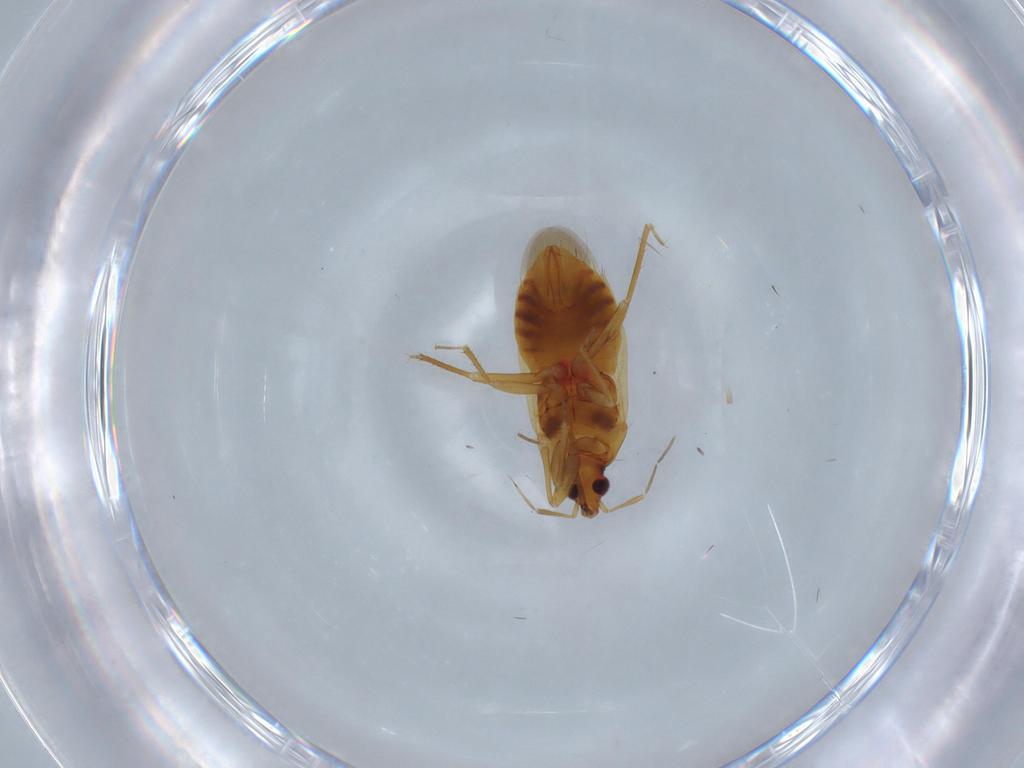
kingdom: Animalia
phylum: Arthropoda
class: Insecta
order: Hemiptera
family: Anthocoridae
